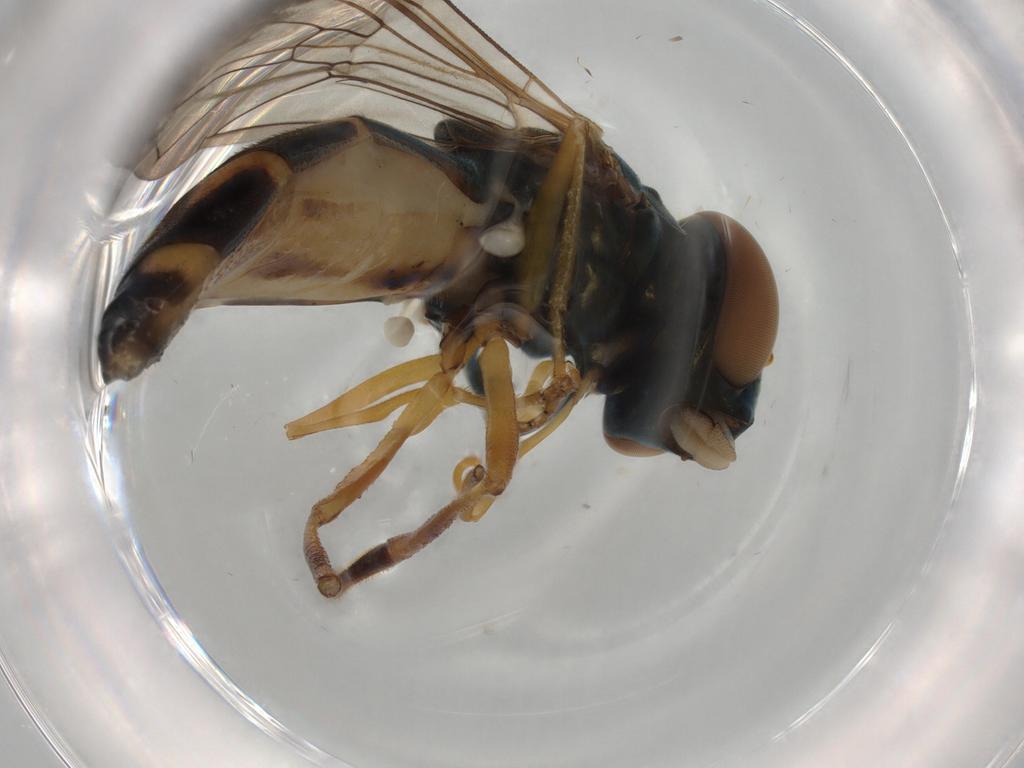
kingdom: Animalia
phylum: Arthropoda
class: Insecta
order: Diptera
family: Syrphidae
